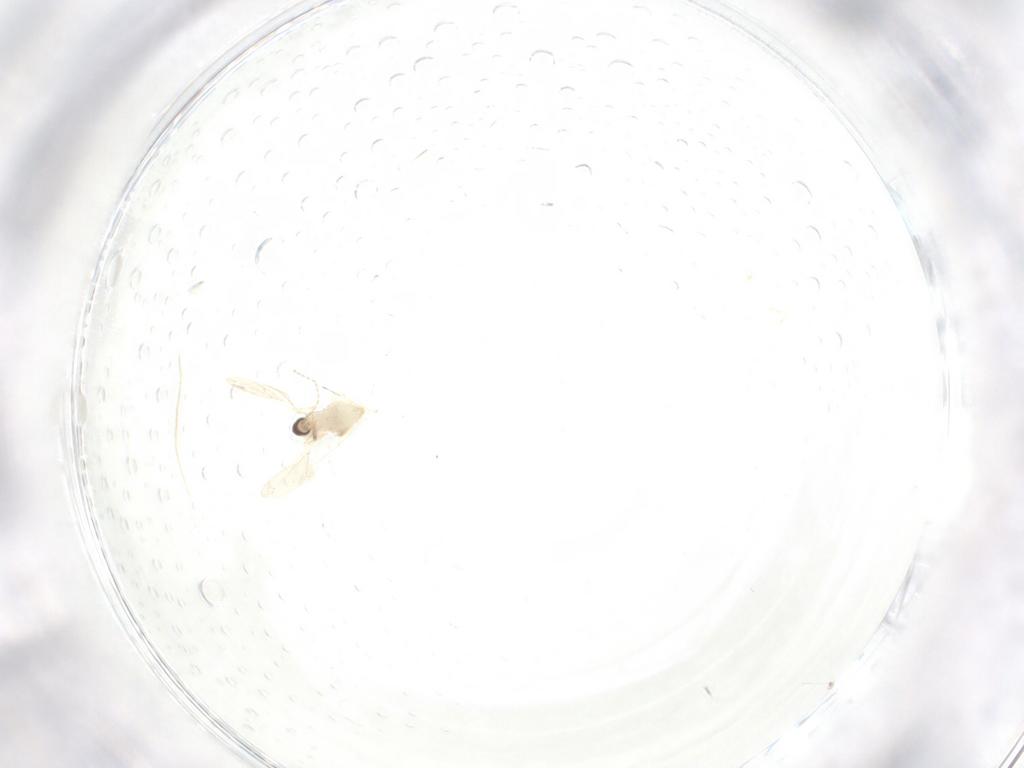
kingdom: Animalia
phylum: Arthropoda
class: Insecta
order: Diptera
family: Cecidomyiidae
